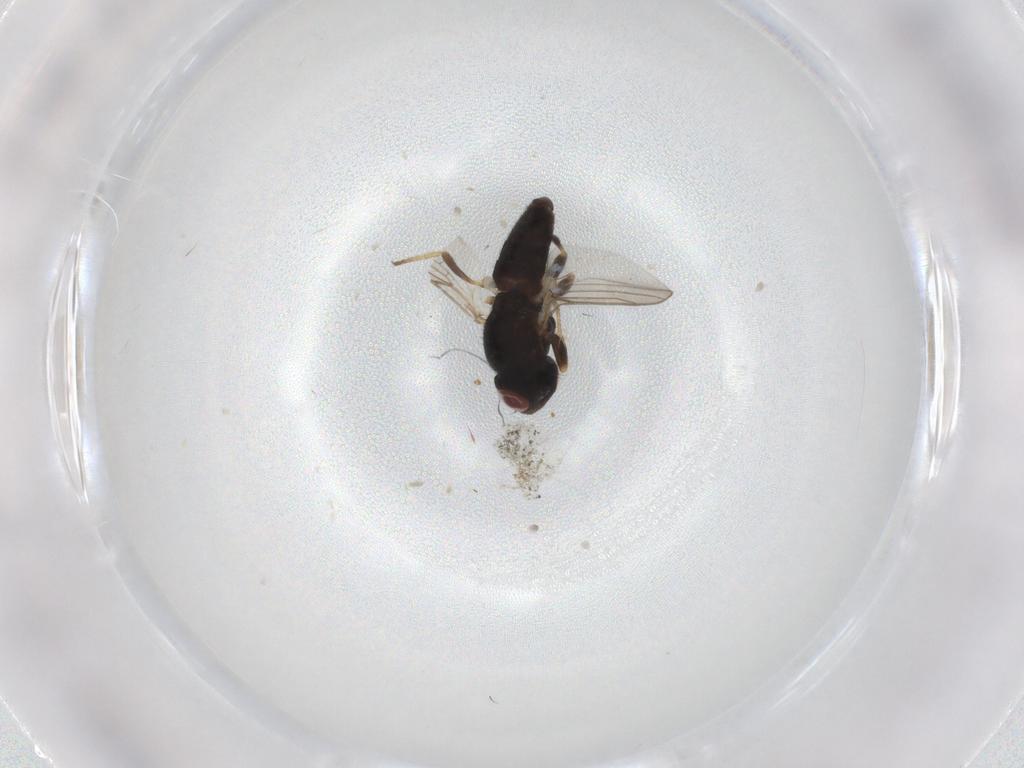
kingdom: Animalia
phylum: Arthropoda
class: Insecta
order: Diptera
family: Chloropidae
